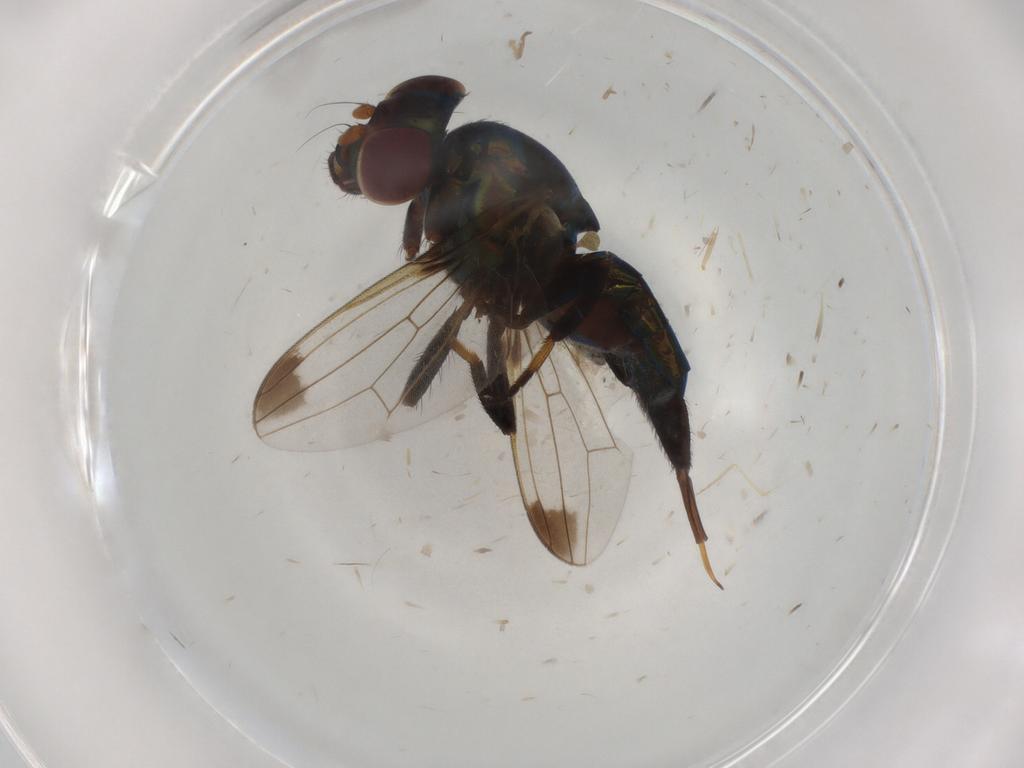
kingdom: Animalia
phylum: Arthropoda
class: Insecta
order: Diptera
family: Ulidiidae
